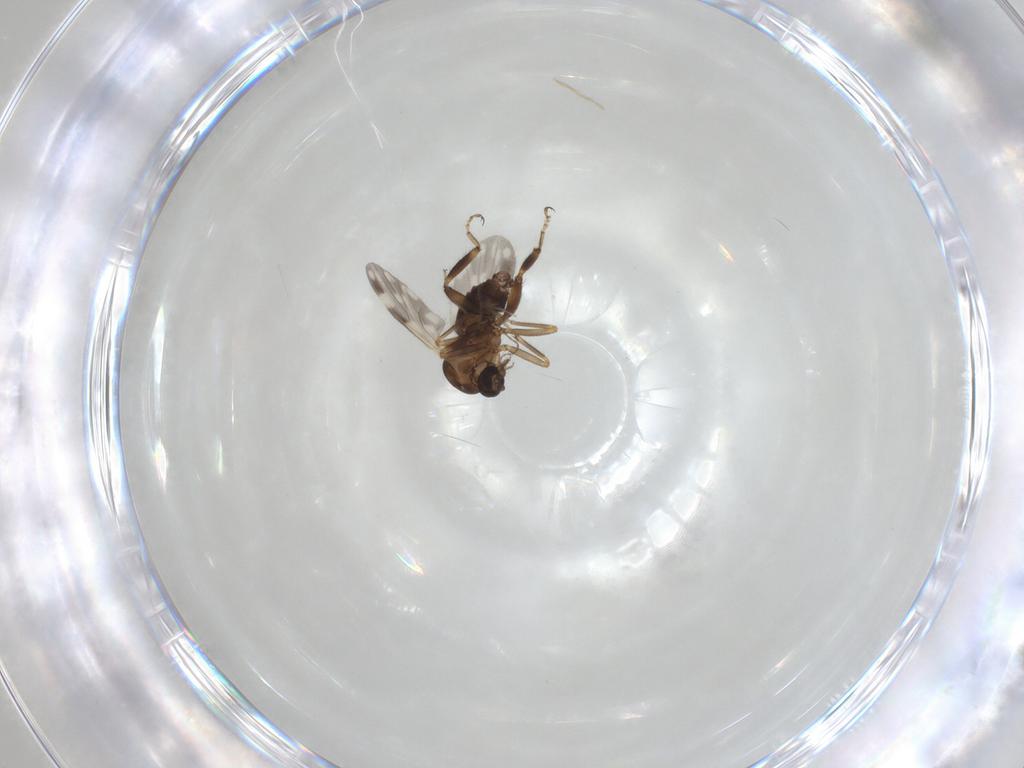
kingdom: Animalia
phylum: Arthropoda
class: Insecta
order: Diptera
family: Ceratopogonidae
